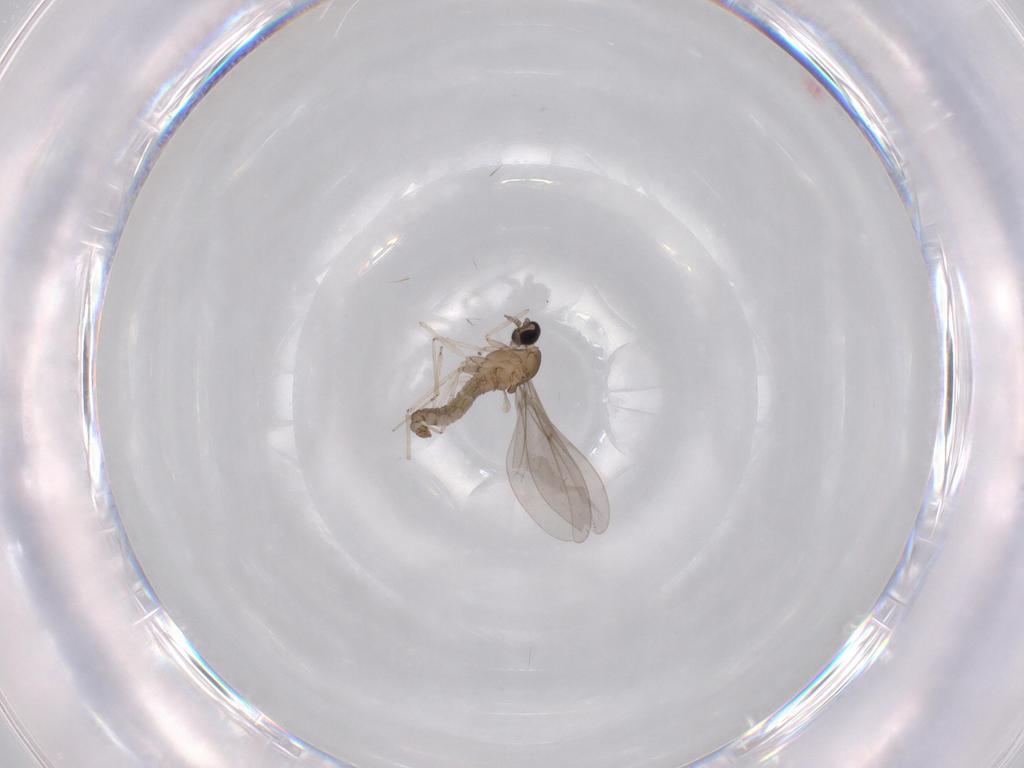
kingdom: Animalia
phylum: Arthropoda
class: Insecta
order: Diptera
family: Cecidomyiidae
